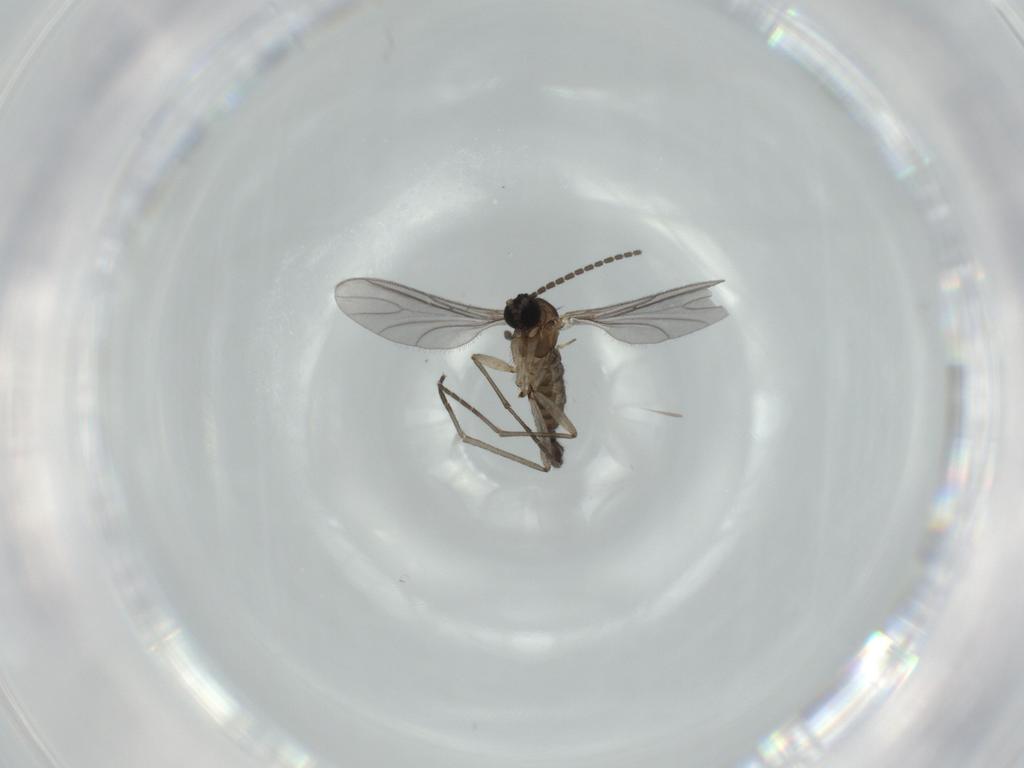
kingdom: Animalia
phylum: Arthropoda
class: Insecta
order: Diptera
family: Sciaridae
